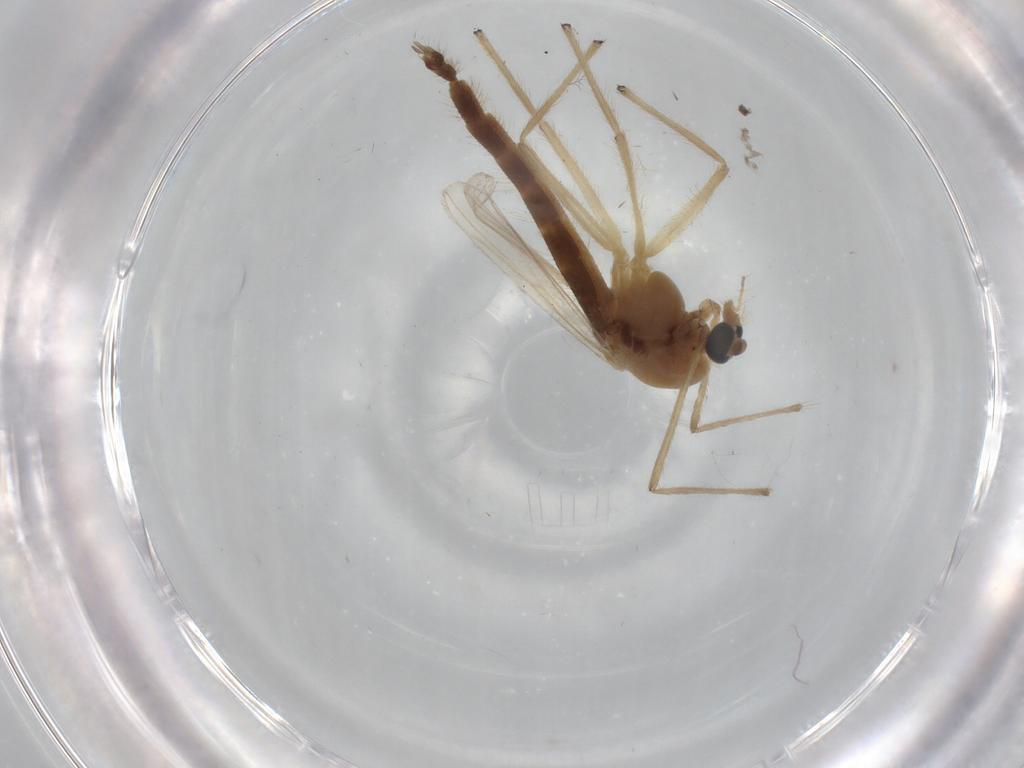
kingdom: Animalia
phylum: Arthropoda
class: Insecta
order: Diptera
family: Chironomidae
